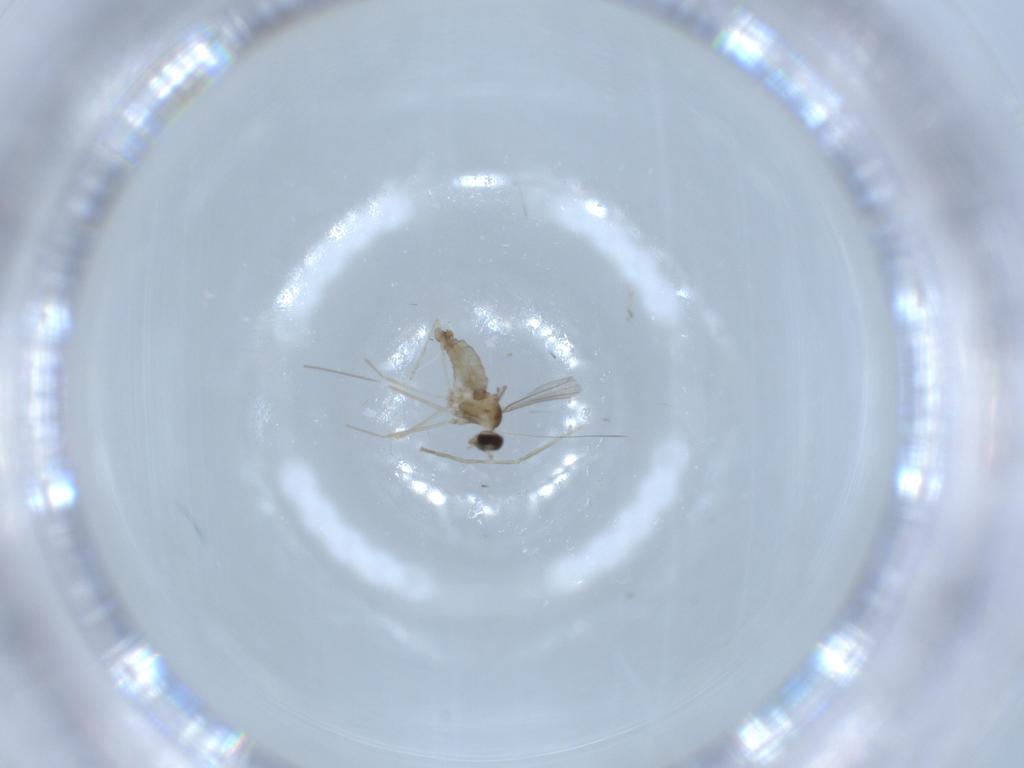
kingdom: Animalia
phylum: Arthropoda
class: Insecta
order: Diptera
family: Cecidomyiidae
